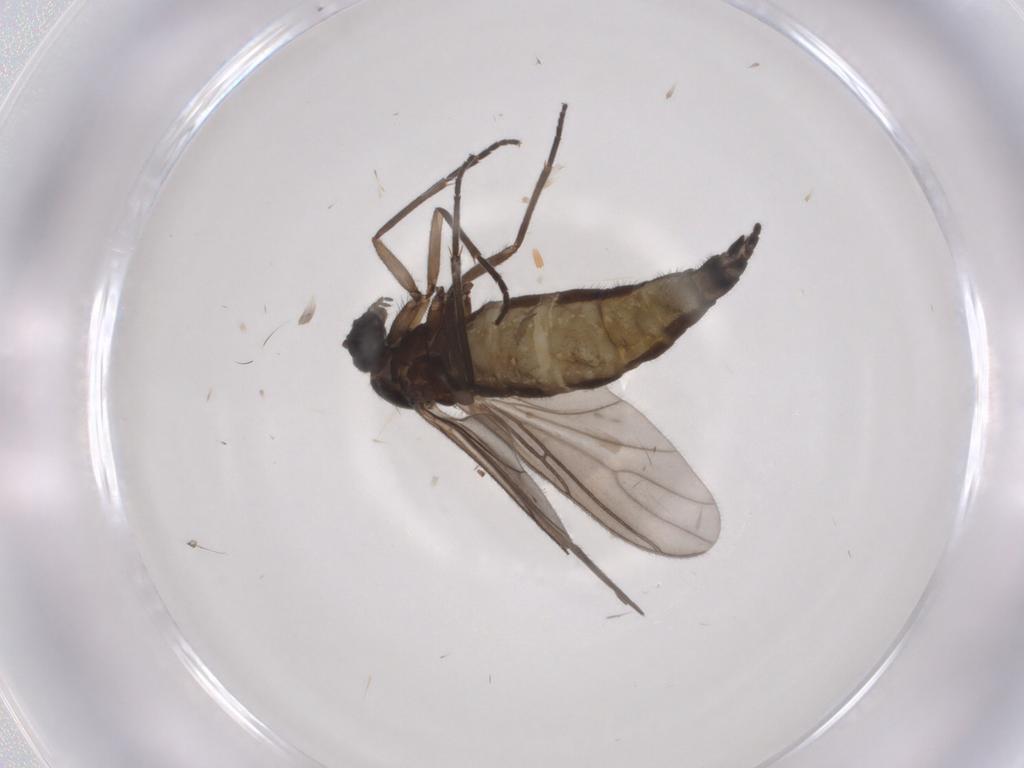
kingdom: Animalia
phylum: Arthropoda
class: Insecta
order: Diptera
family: Sciaridae
